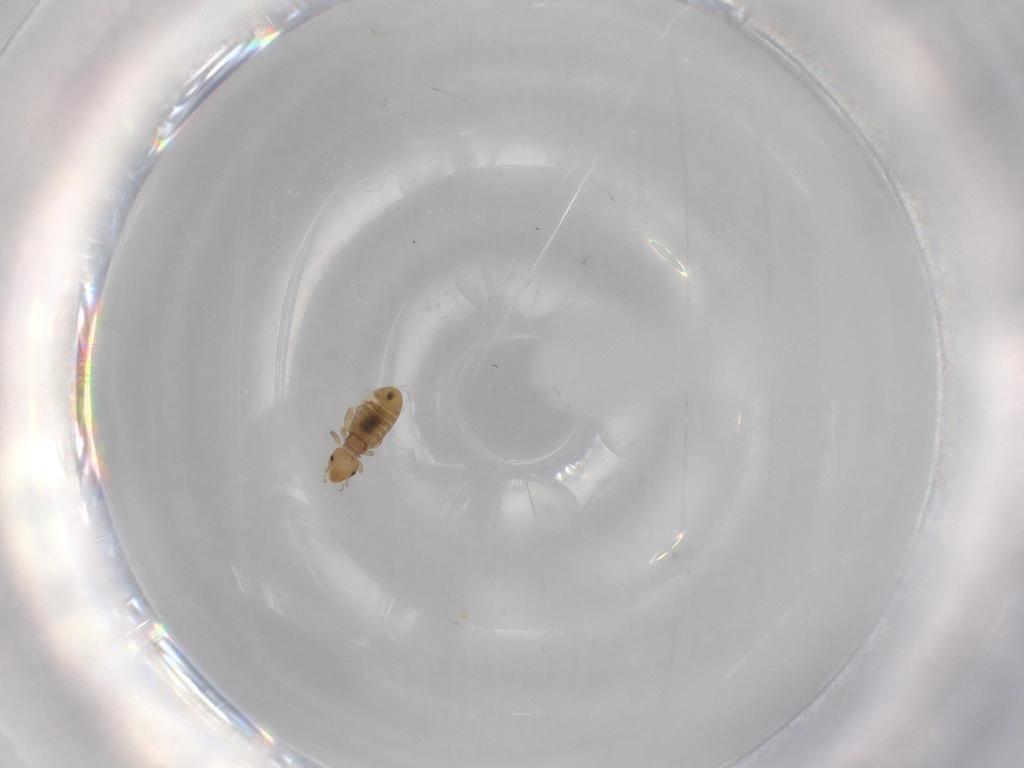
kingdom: Animalia
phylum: Arthropoda
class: Insecta
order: Psocodea
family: Liposcelididae
